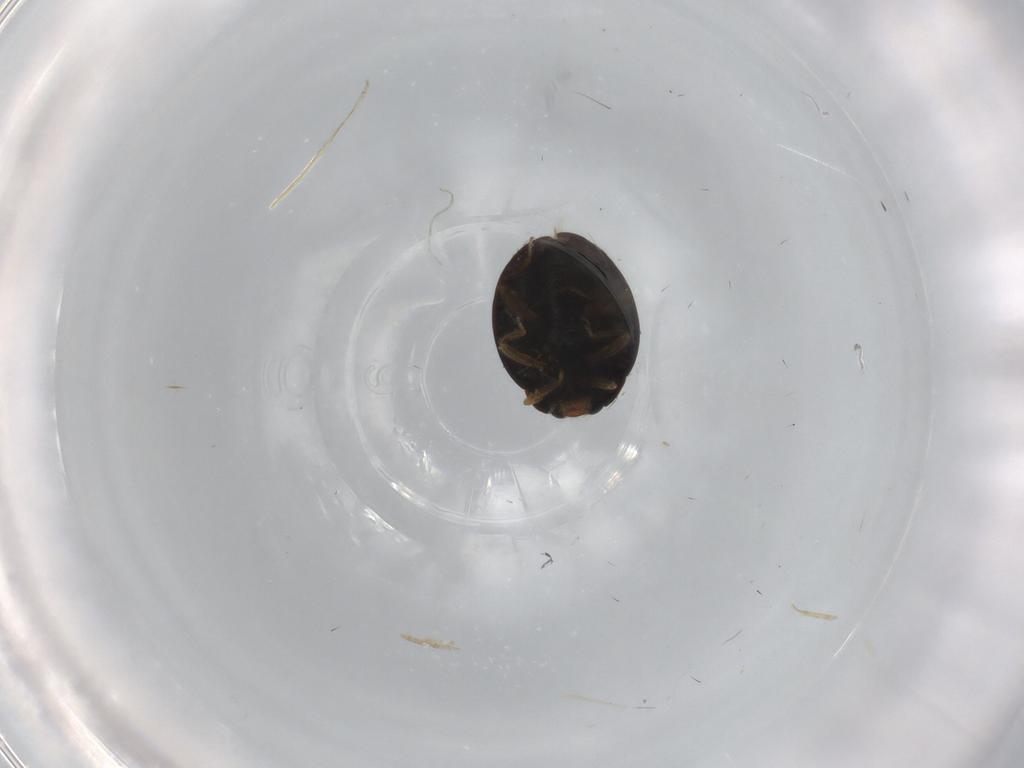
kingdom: Animalia
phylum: Arthropoda
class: Insecta
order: Coleoptera
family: Coccinellidae
